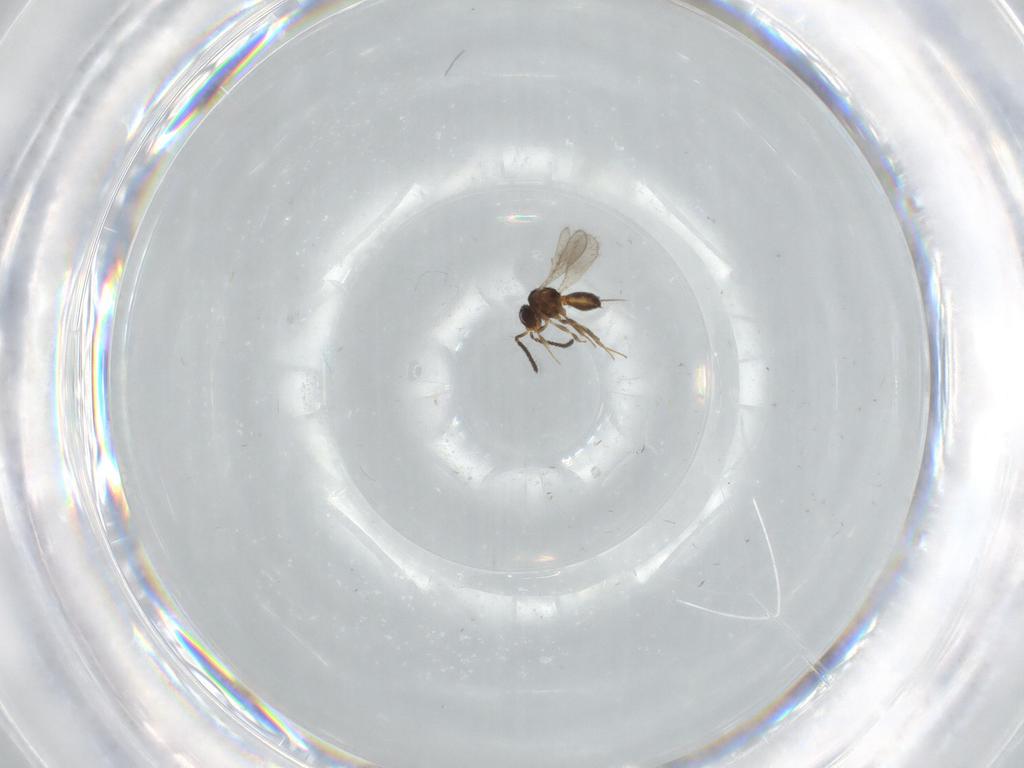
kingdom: Animalia
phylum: Arthropoda
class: Insecta
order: Hymenoptera
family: Scelionidae
